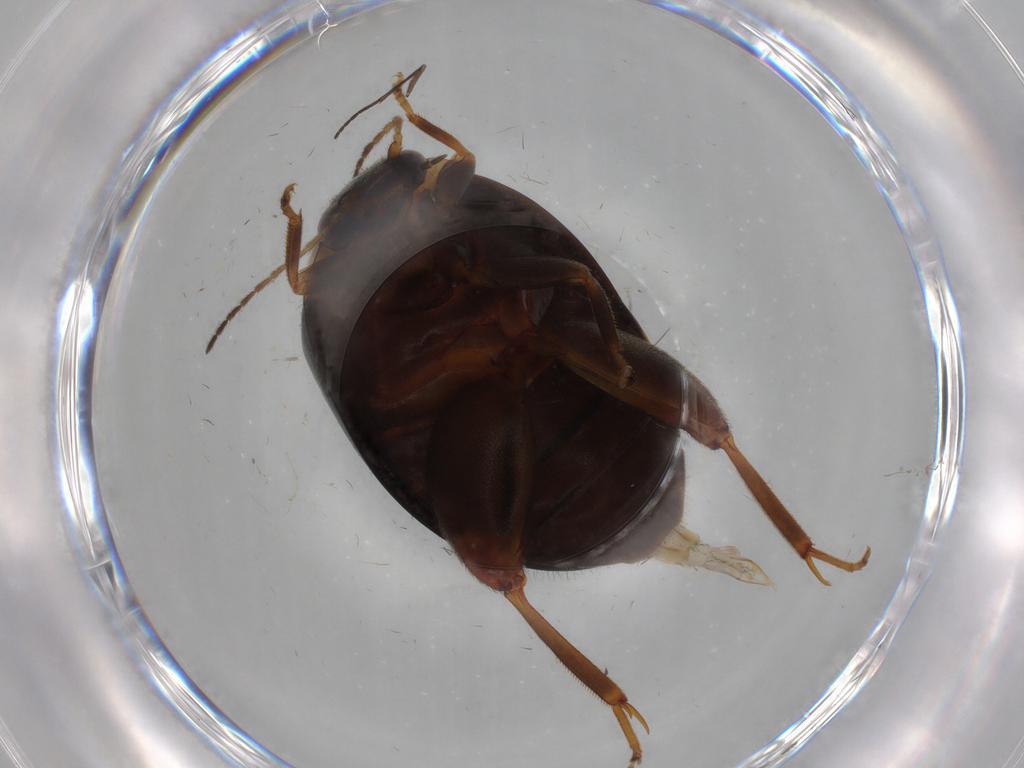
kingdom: Animalia
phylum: Arthropoda
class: Insecta
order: Coleoptera
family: Scirtidae
